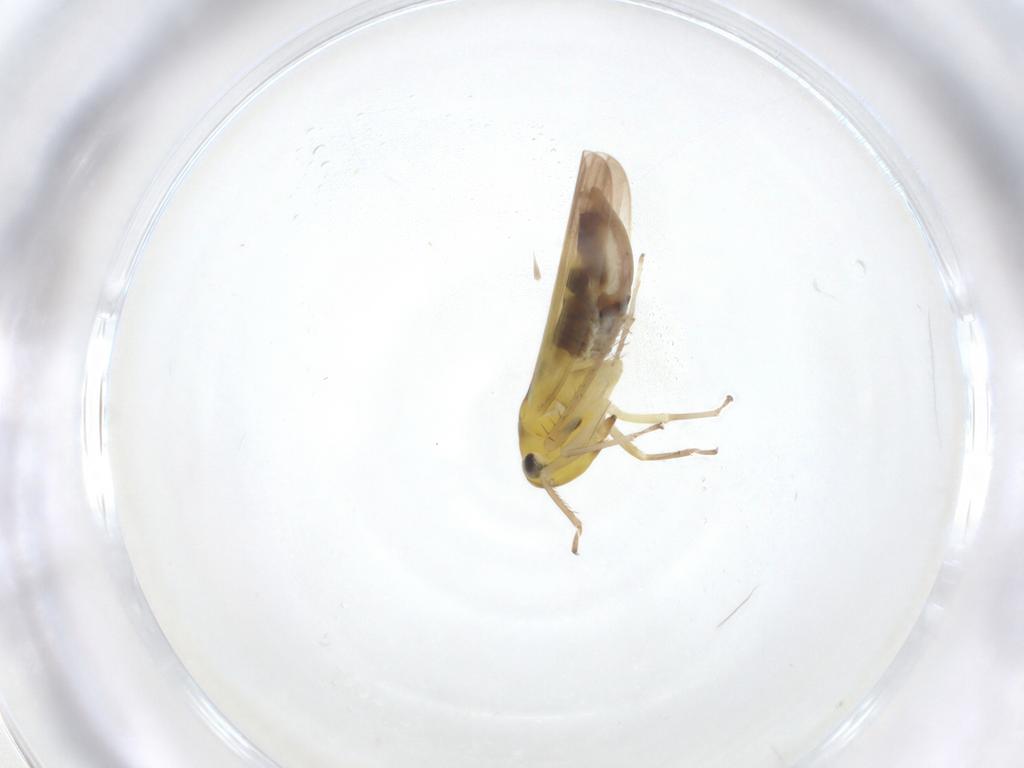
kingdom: Animalia
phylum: Arthropoda
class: Insecta
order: Hemiptera
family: Cicadellidae
